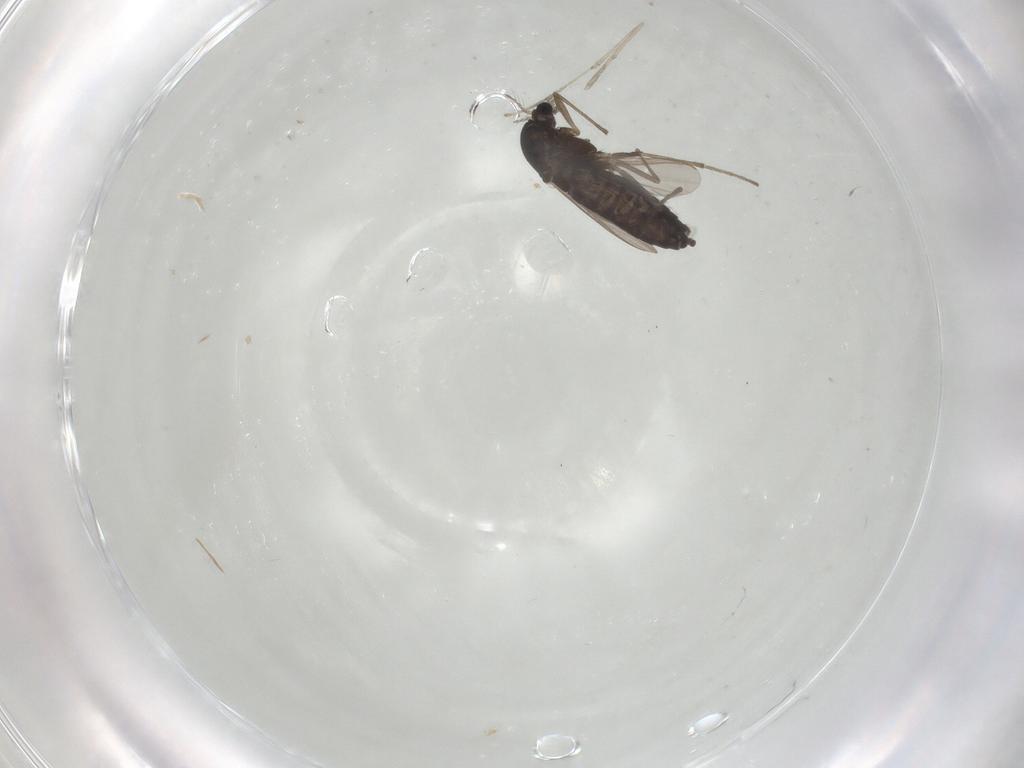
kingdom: Animalia
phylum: Arthropoda
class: Insecta
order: Diptera
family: Chironomidae
